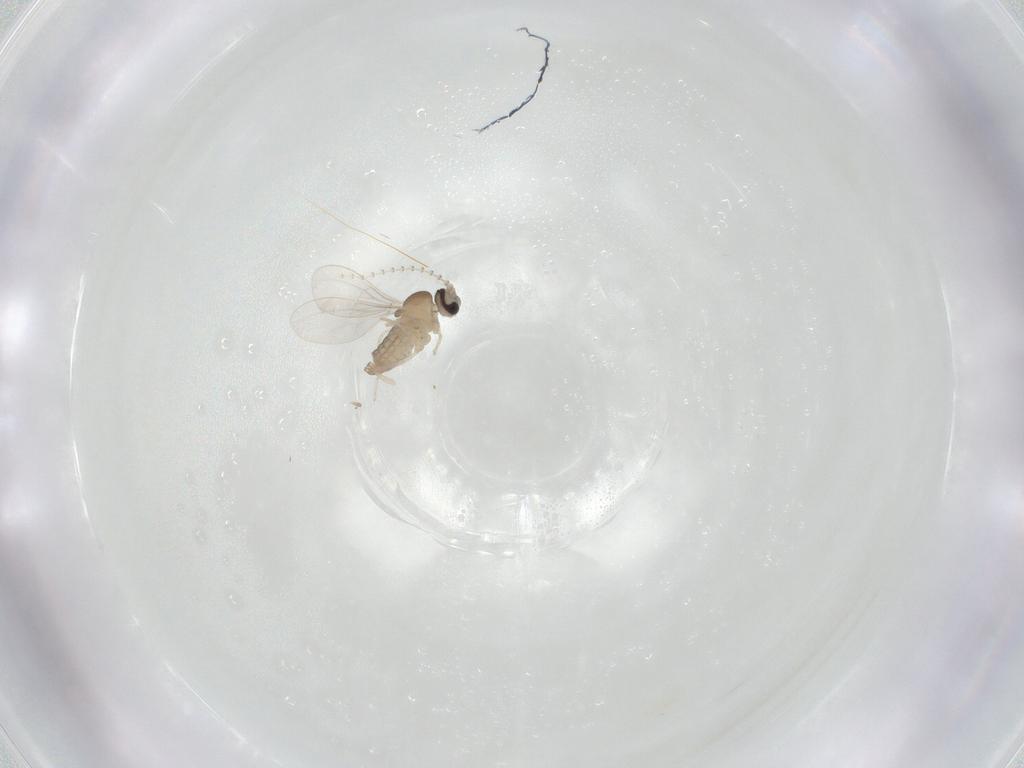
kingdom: Animalia
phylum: Arthropoda
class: Insecta
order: Diptera
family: Cecidomyiidae
